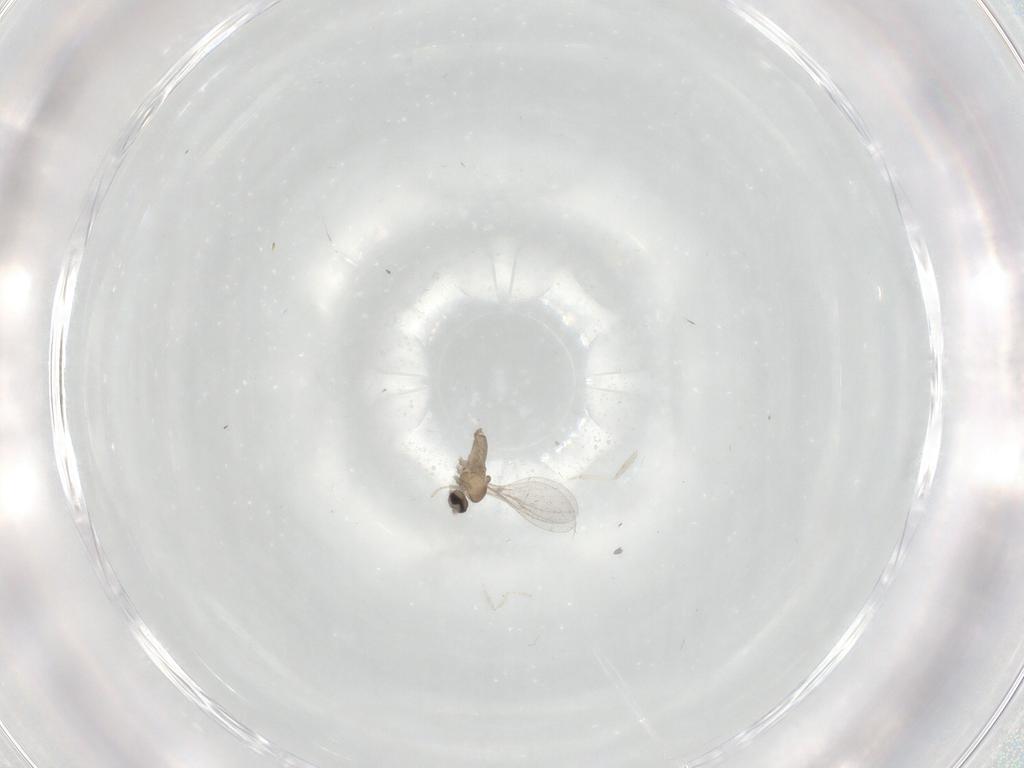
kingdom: Animalia
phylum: Arthropoda
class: Insecta
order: Diptera
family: Cecidomyiidae
